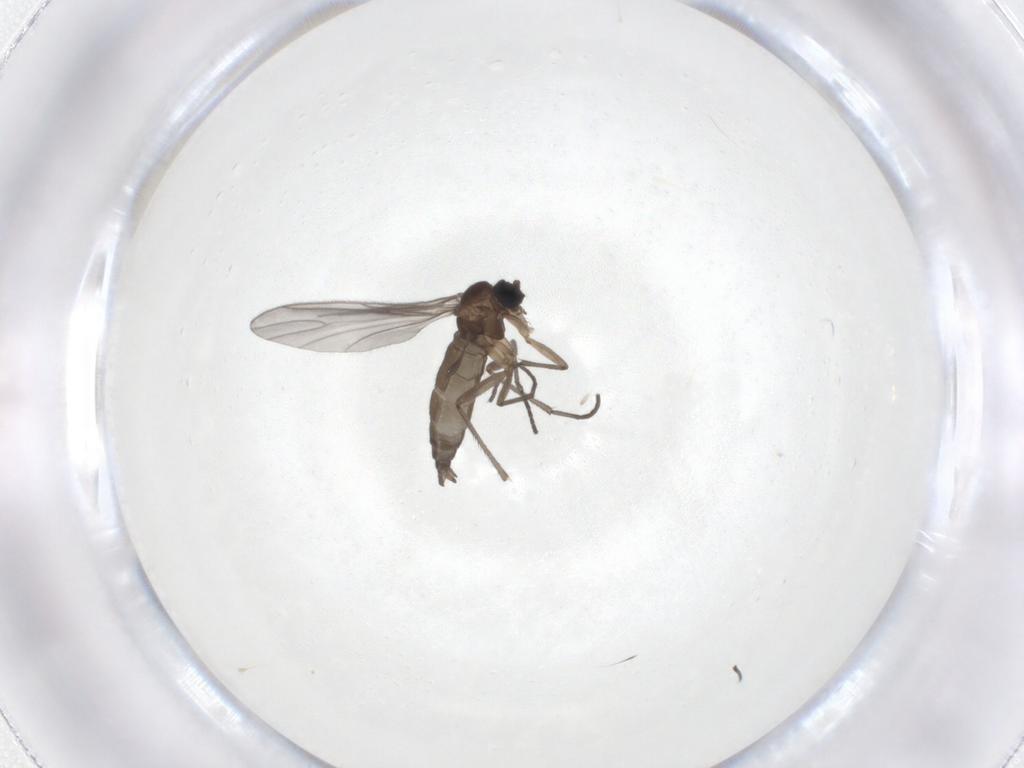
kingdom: Animalia
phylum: Arthropoda
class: Insecta
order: Diptera
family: Sciaridae
